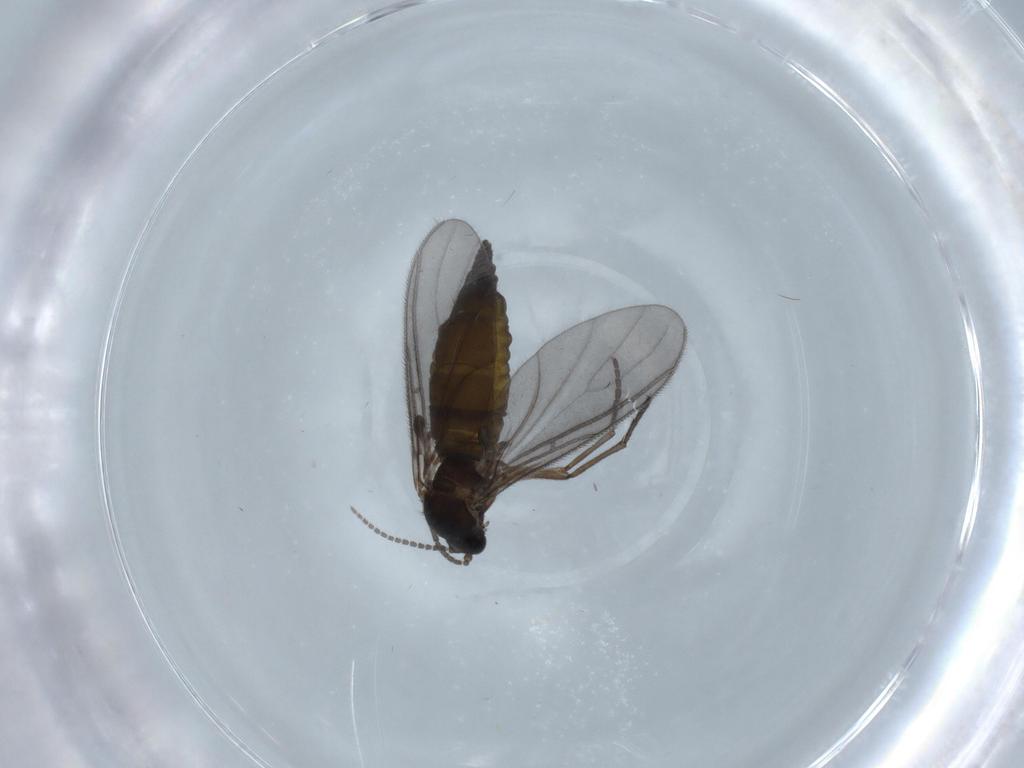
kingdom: Animalia
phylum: Arthropoda
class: Insecta
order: Diptera
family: Sciaridae
